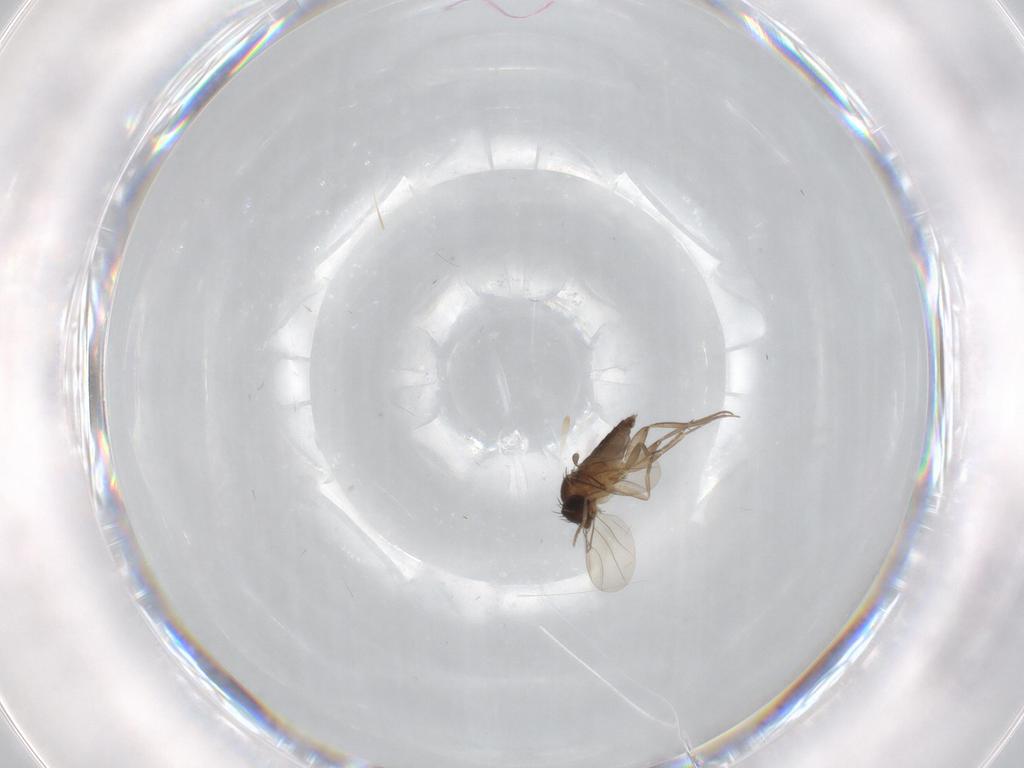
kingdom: Animalia
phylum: Arthropoda
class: Insecta
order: Diptera
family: Phoridae
